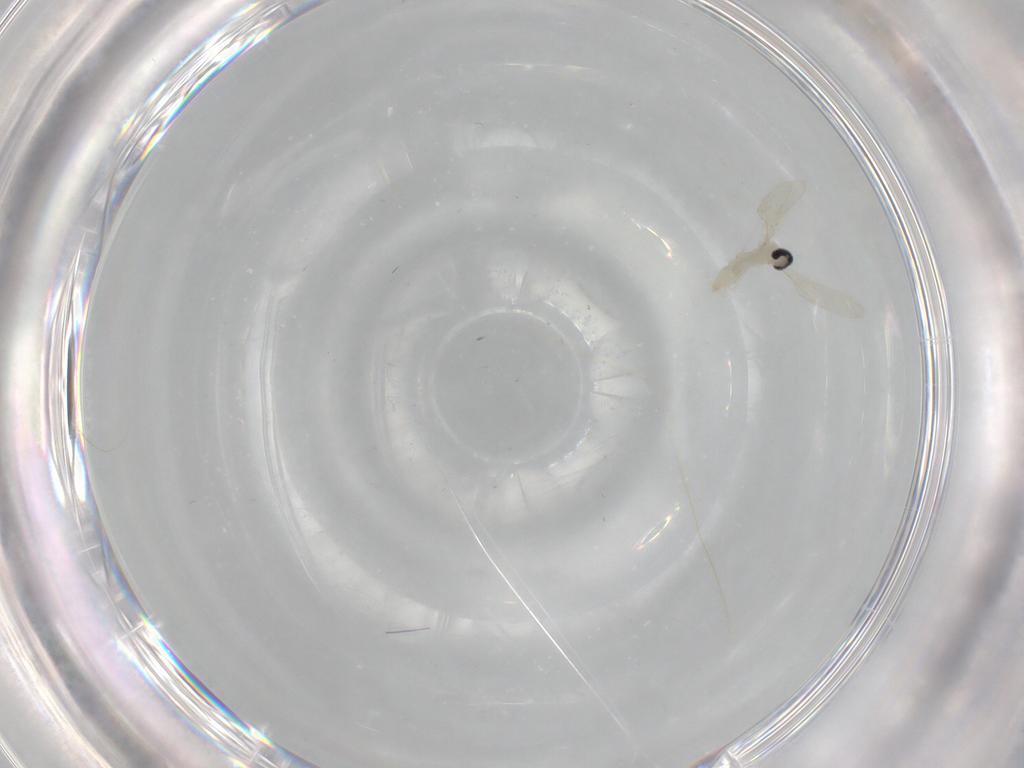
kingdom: Animalia
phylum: Arthropoda
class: Insecta
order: Diptera
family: Cecidomyiidae
